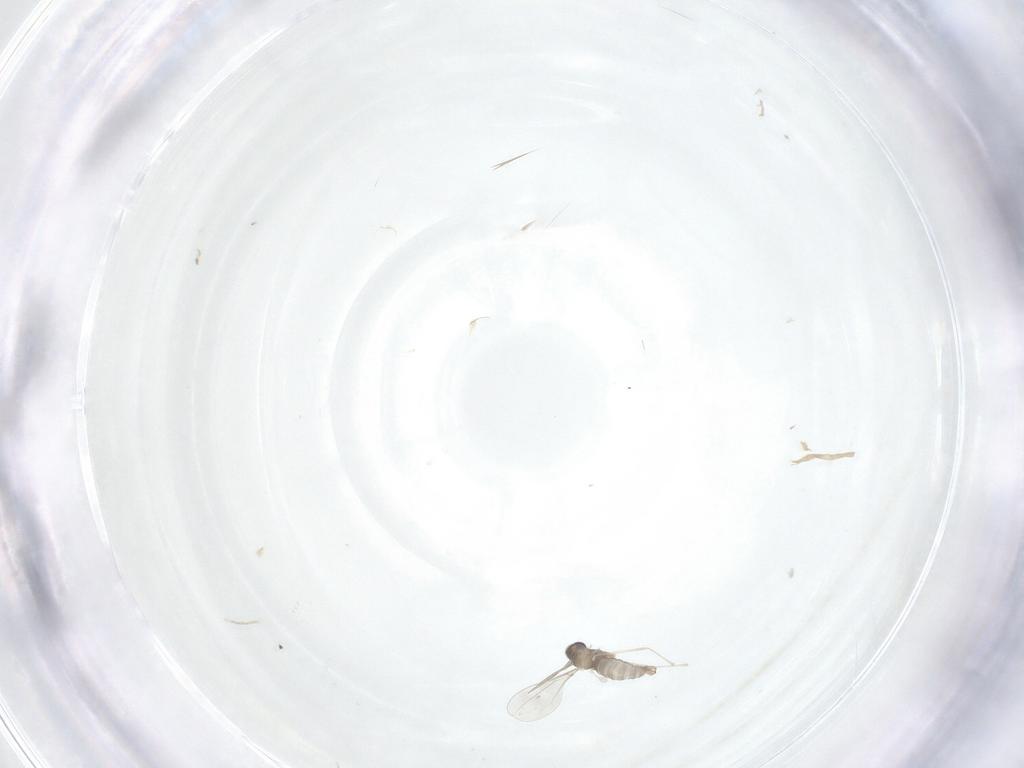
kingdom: Animalia
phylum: Arthropoda
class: Insecta
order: Diptera
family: Cecidomyiidae
